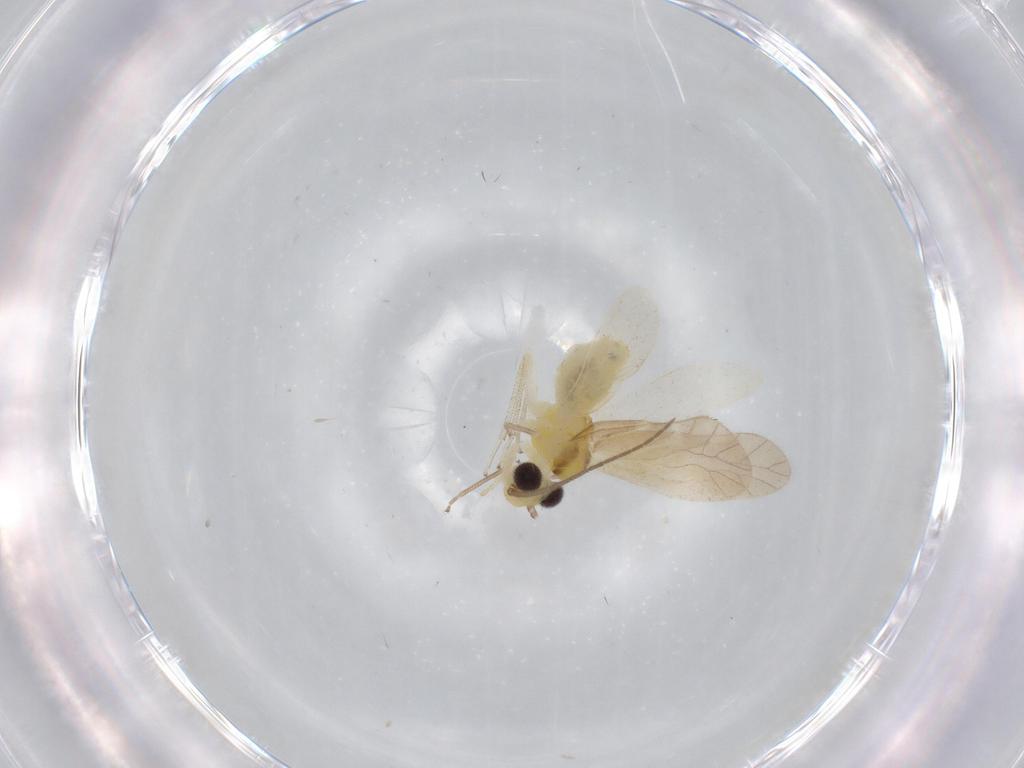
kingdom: Animalia
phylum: Arthropoda
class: Insecta
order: Psocodea
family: Caeciliusidae
